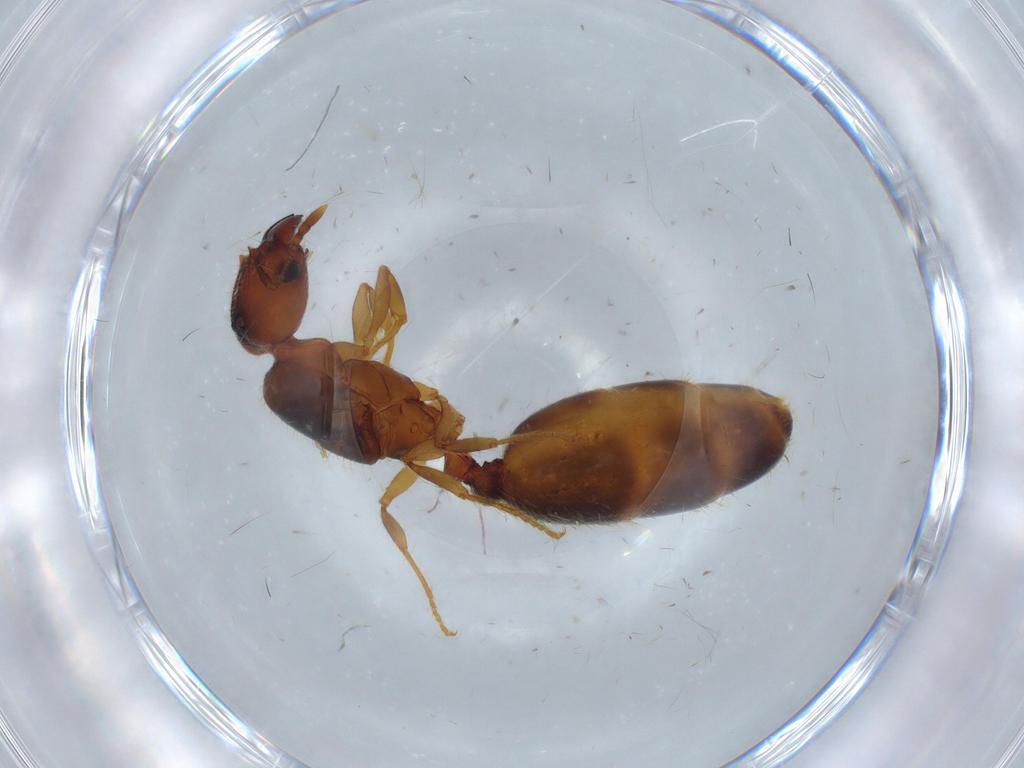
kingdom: Animalia
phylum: Arthropoda
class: Insecta
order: Hymenoptera
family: Formicidae
